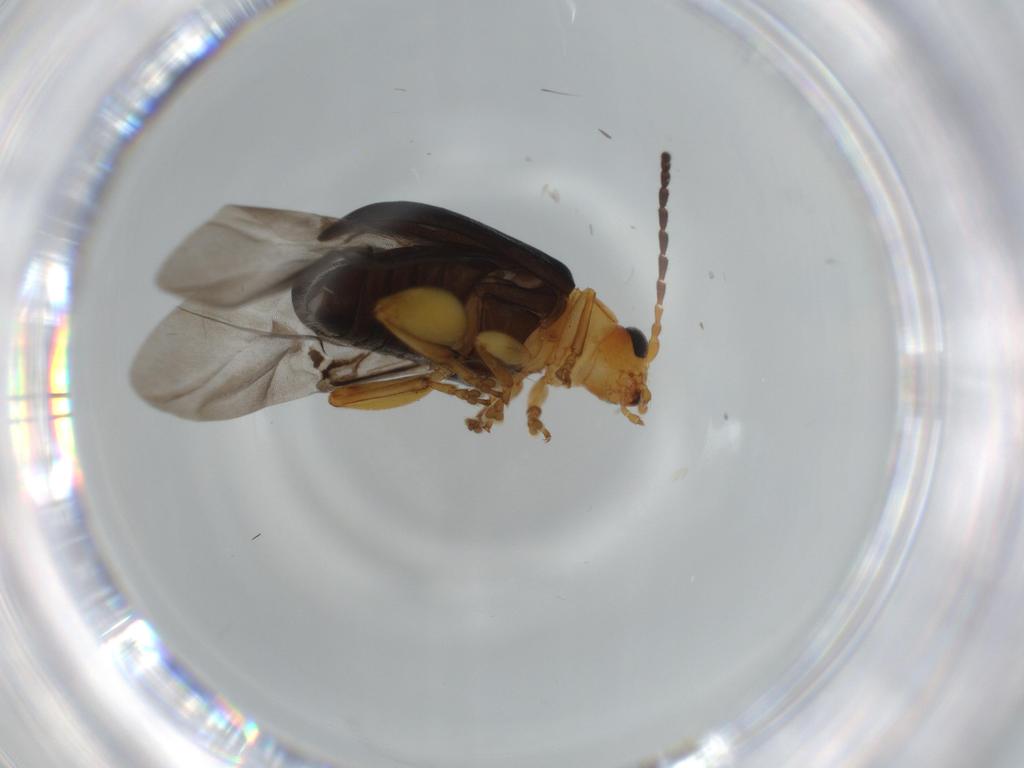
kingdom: Animalia
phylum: Arthropoda
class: Insecta
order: Coleoptera
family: Chrysomelidae
